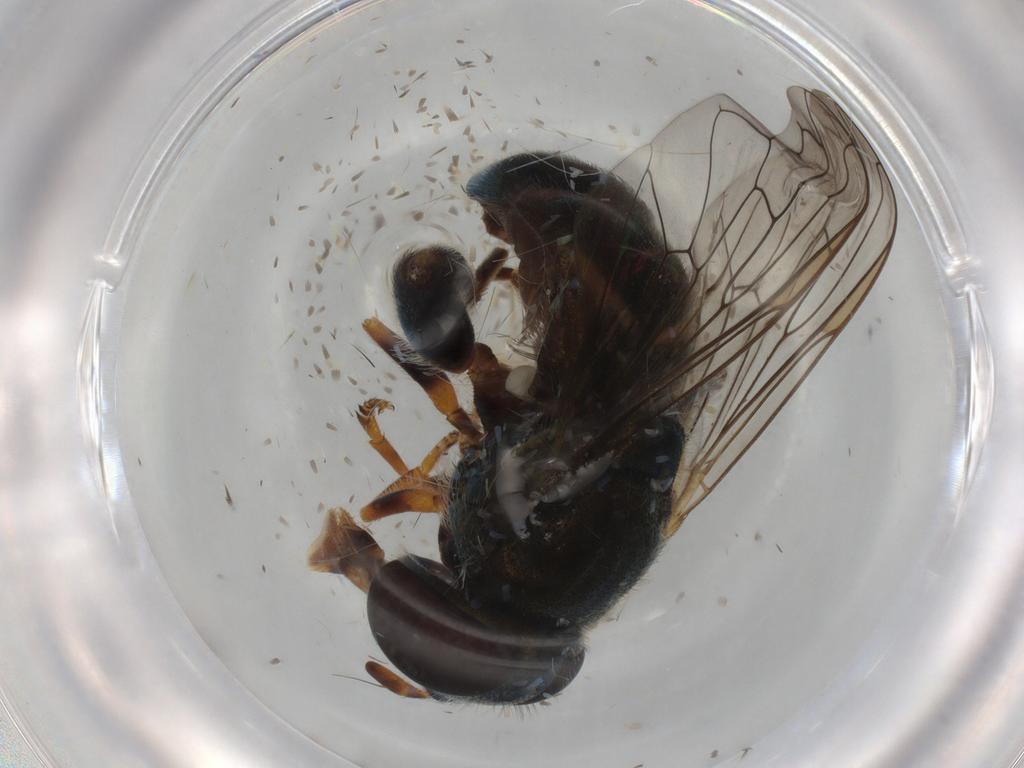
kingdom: Animalia
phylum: Arthropoda
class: Insecta
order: Diptera
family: Syrphidae
